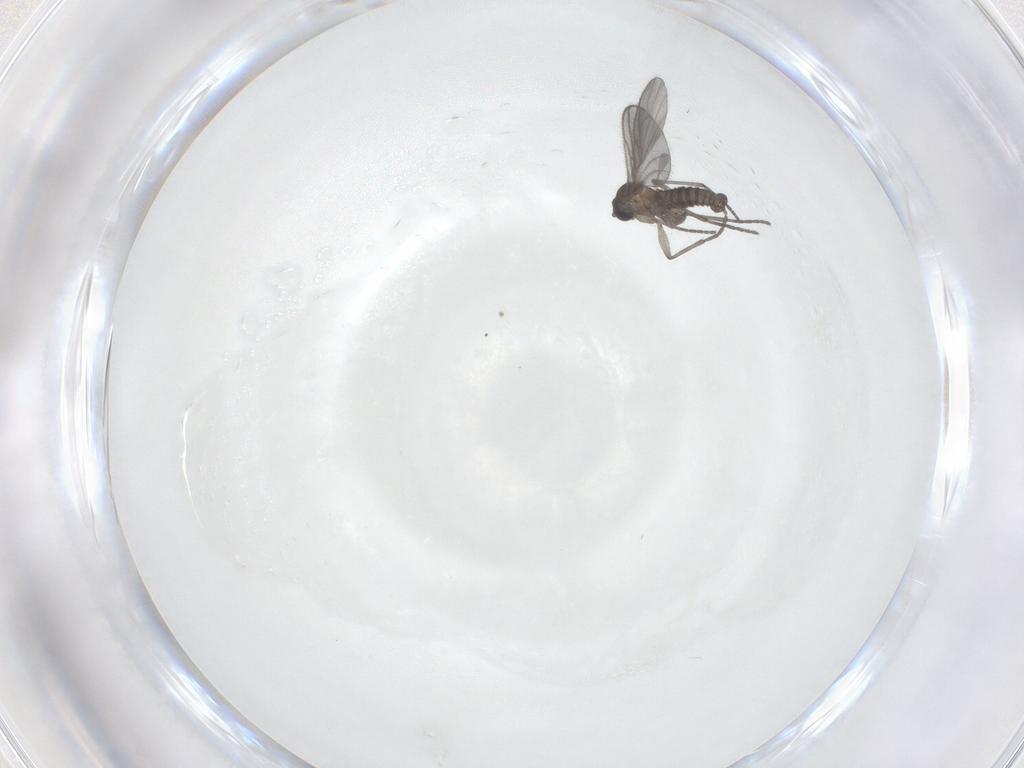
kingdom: Animalia
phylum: Arthropoda
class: Insecta
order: Diptera
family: Sciaridae
